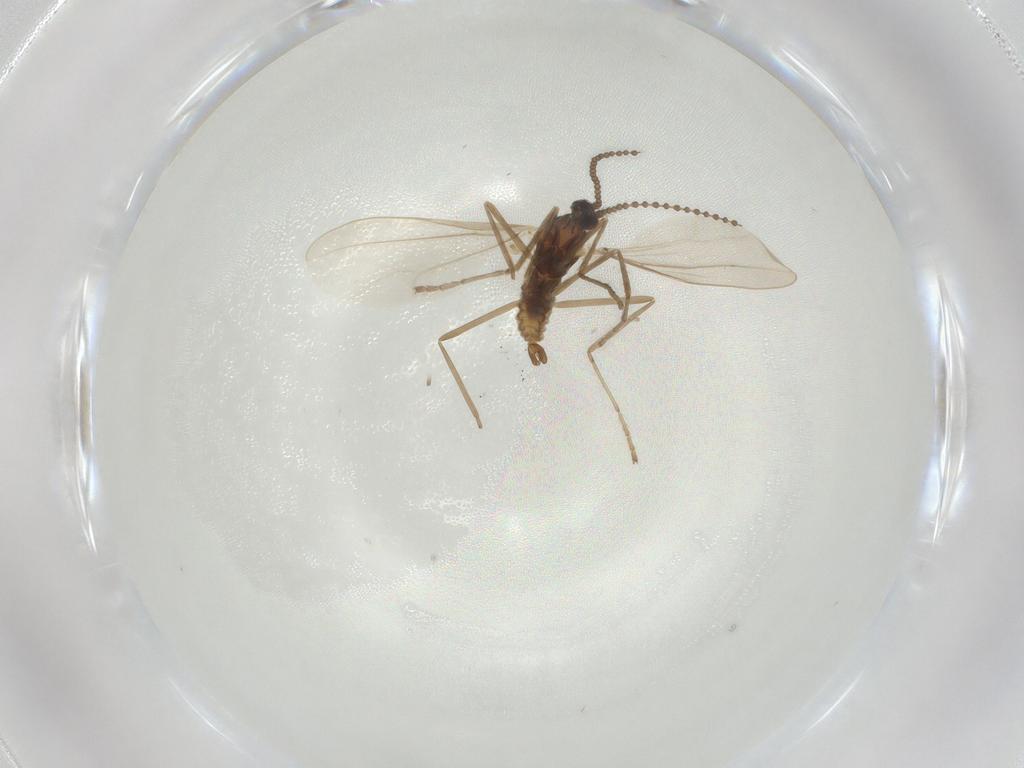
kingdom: Animalia
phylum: Arthropoda
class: Insecta
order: Diptera
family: Cecidomyiidae
